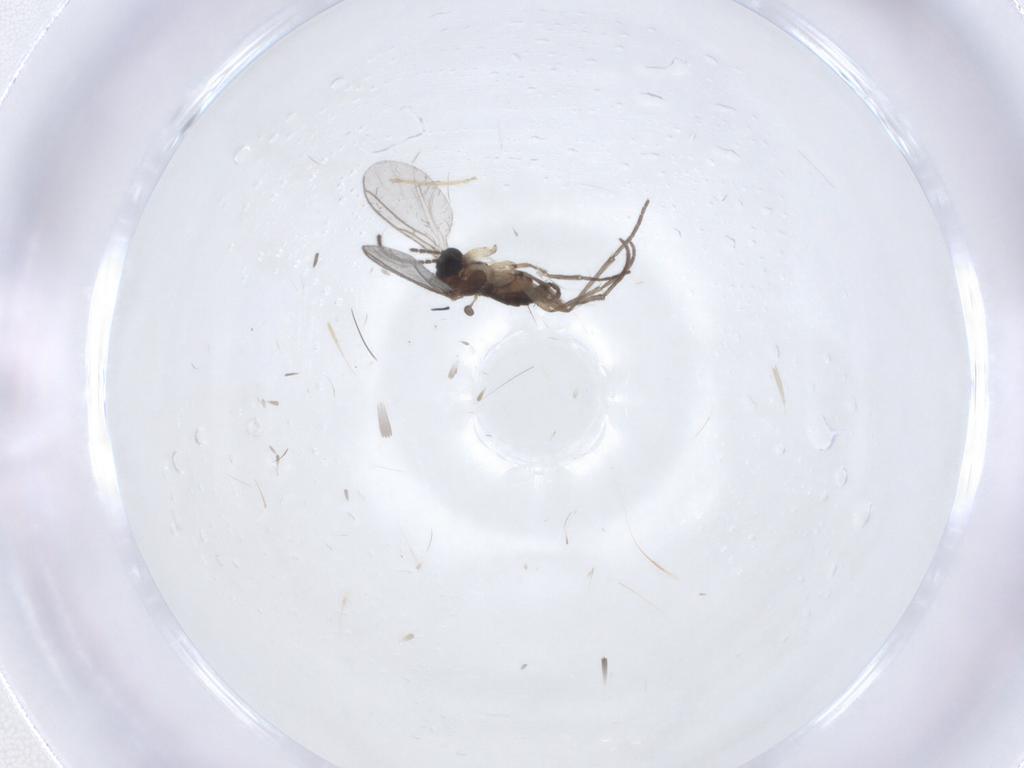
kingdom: Animalia
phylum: Arthropoda
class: Insecta
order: Diptera
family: Phoridae
